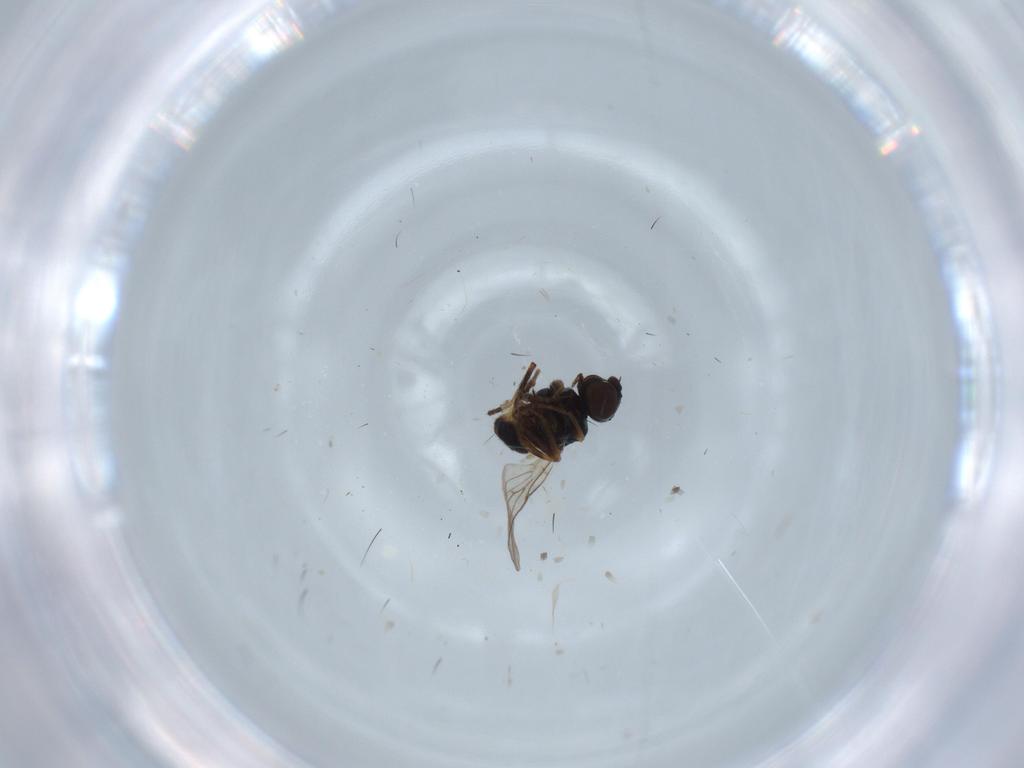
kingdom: Animalia
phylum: Arthropoda
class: Insecta
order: Diptera
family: Chloropidae
